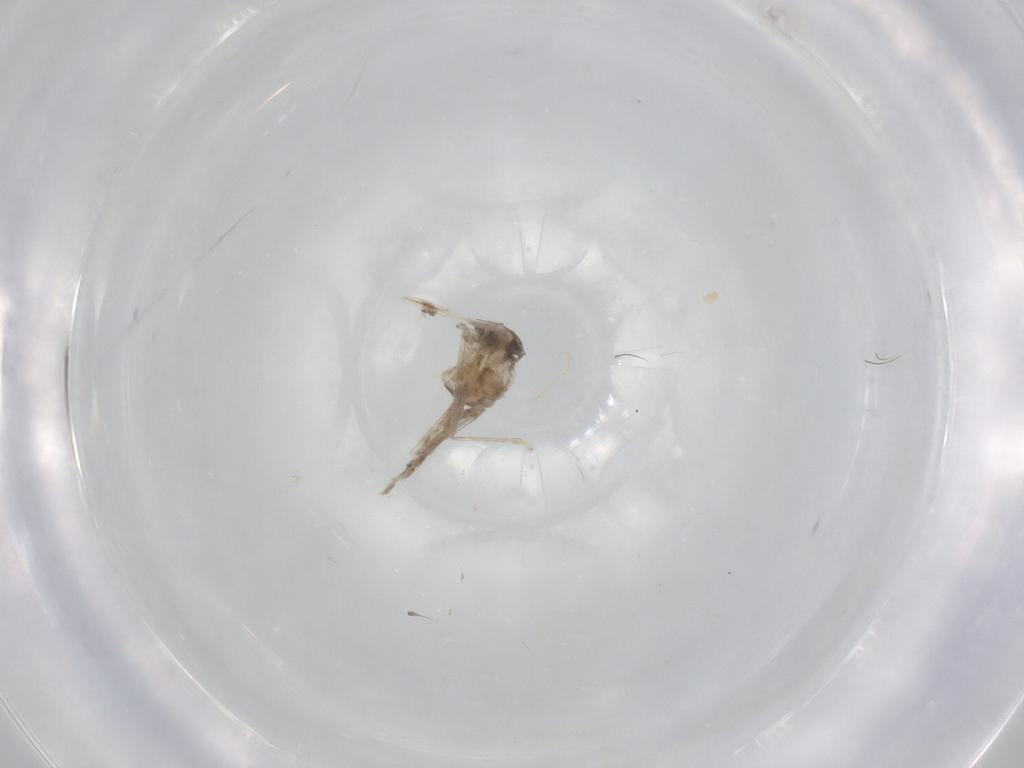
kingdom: Animalia
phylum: Arthropoda
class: Insecta
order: Diptera
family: Cecidomyiidae
